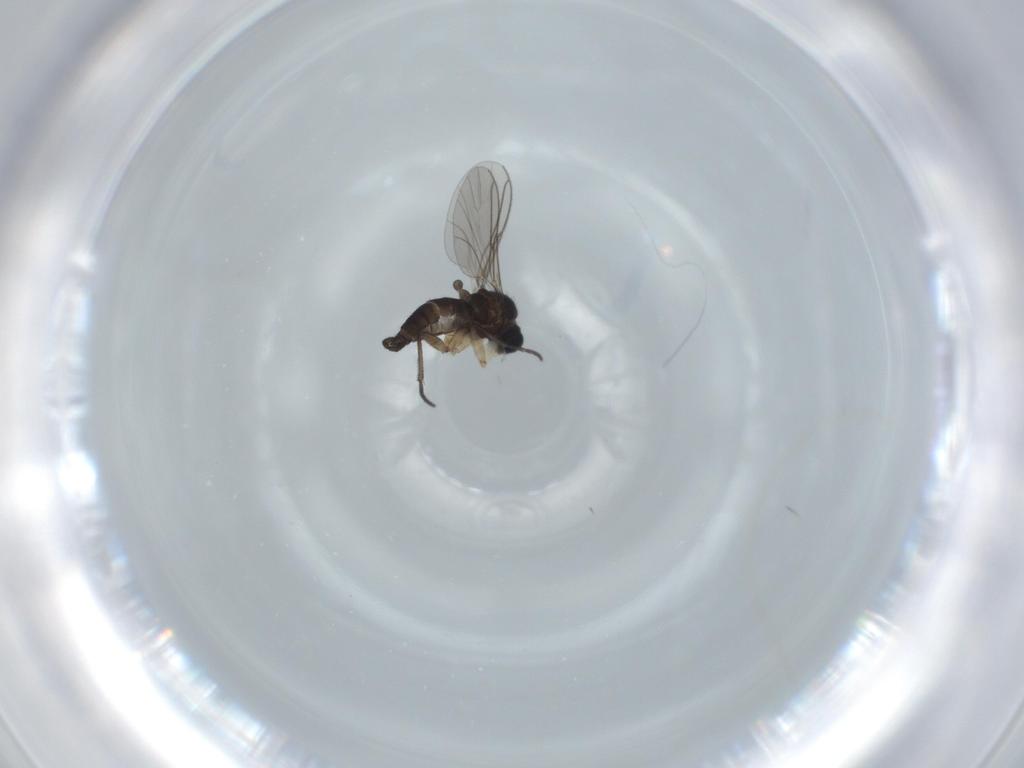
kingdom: Animalia
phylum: Arthropoda
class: Insecta
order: Diptera
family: Sciaridae
